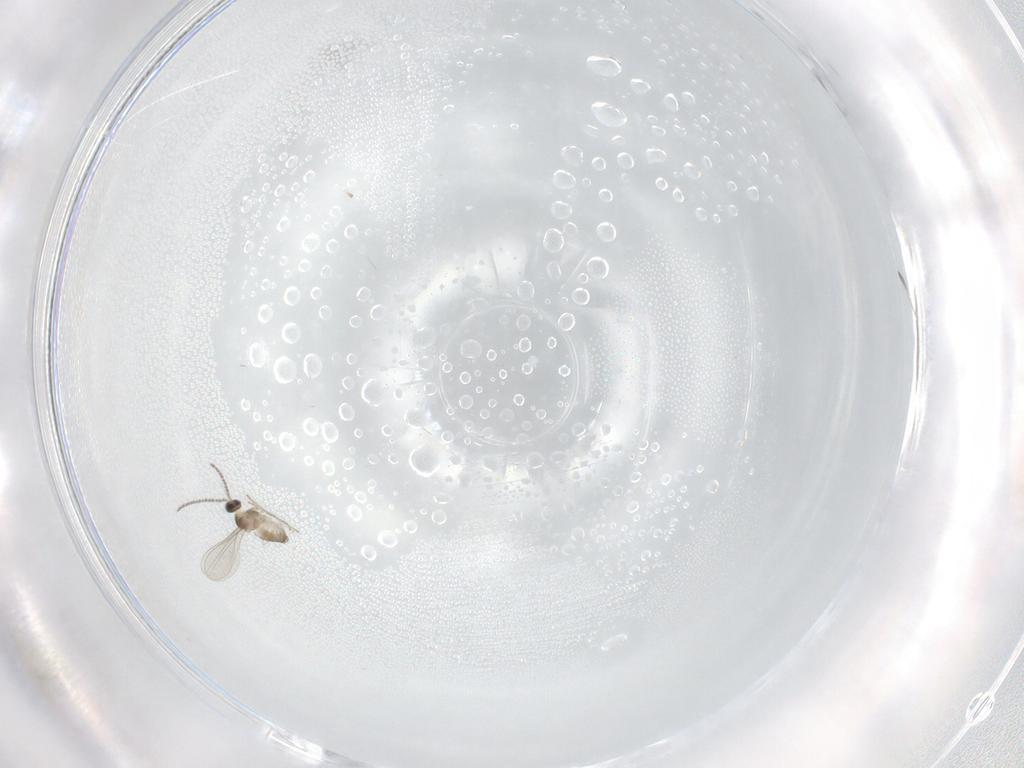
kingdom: Animalia
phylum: Arthropoda
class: Insecta
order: Diptera
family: Cecidomyiidae
